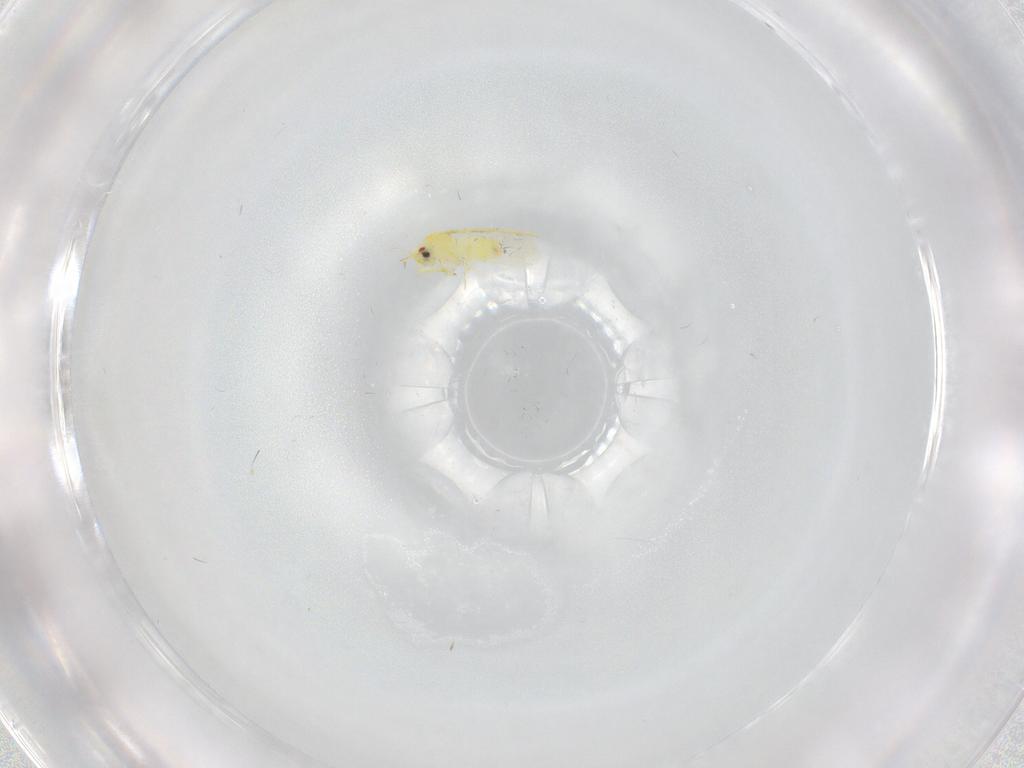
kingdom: Animalia
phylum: Arthropoda
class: Insecta
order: Hemiptera
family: Aleyrodidae
